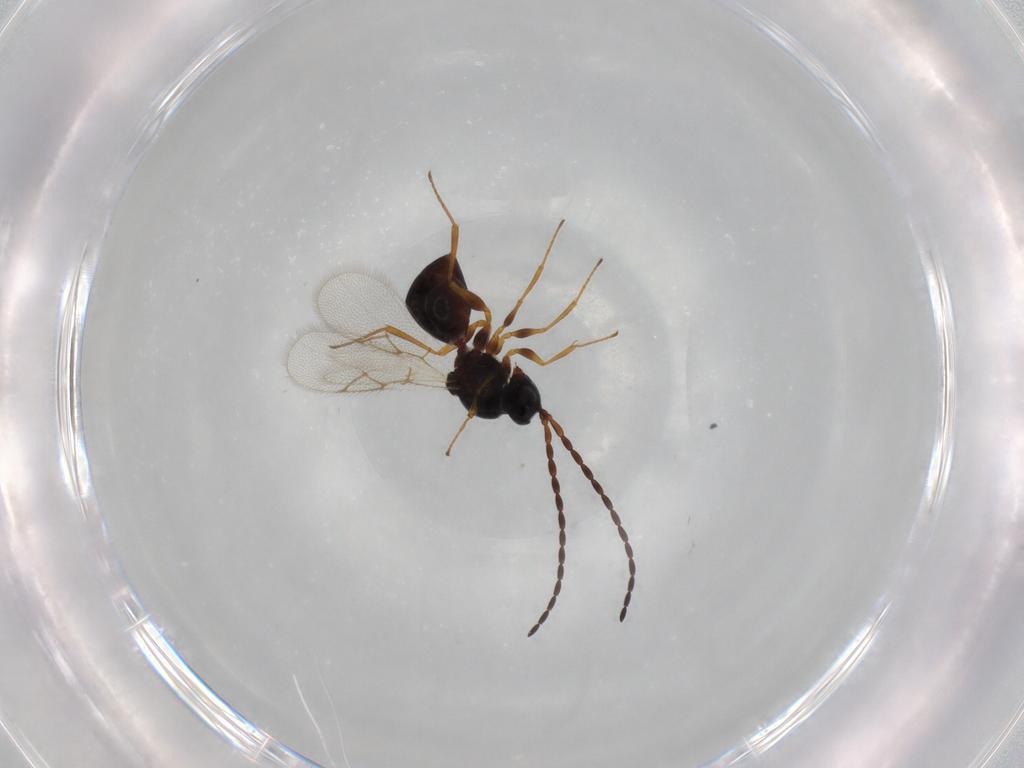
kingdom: Animalia
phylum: Arthropoda
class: Insecta
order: Hymenoptera
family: Figitidae
